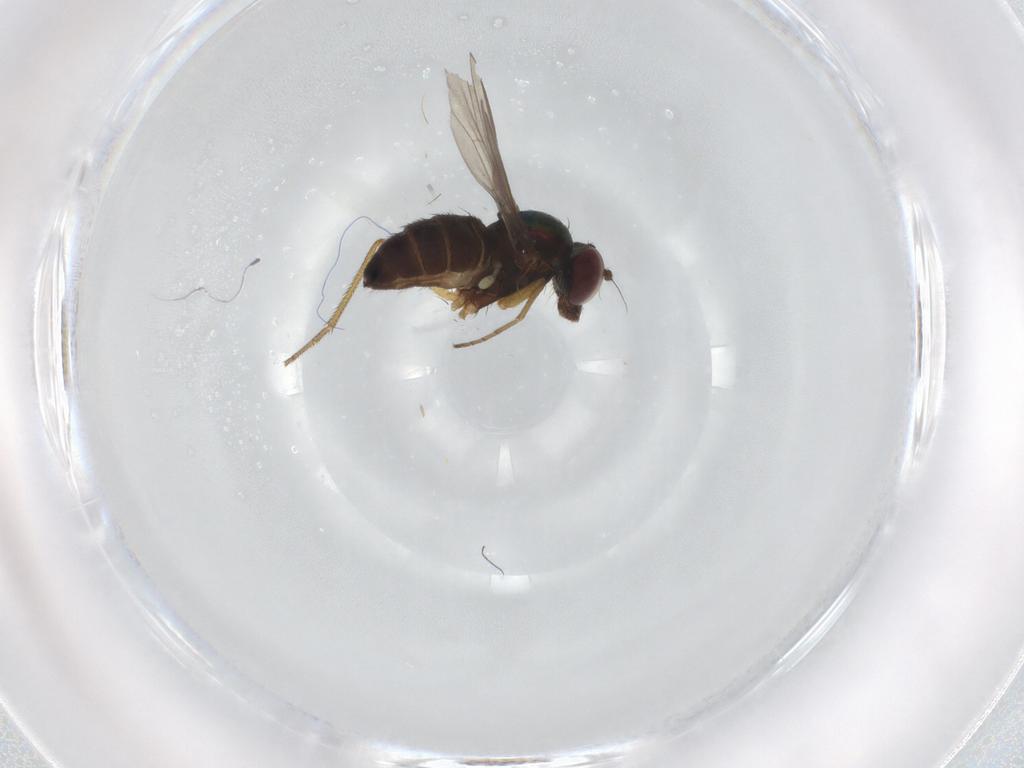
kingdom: Animalia
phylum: Arthropoda
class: Insecta
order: Diptera
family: Dolichopodidae
